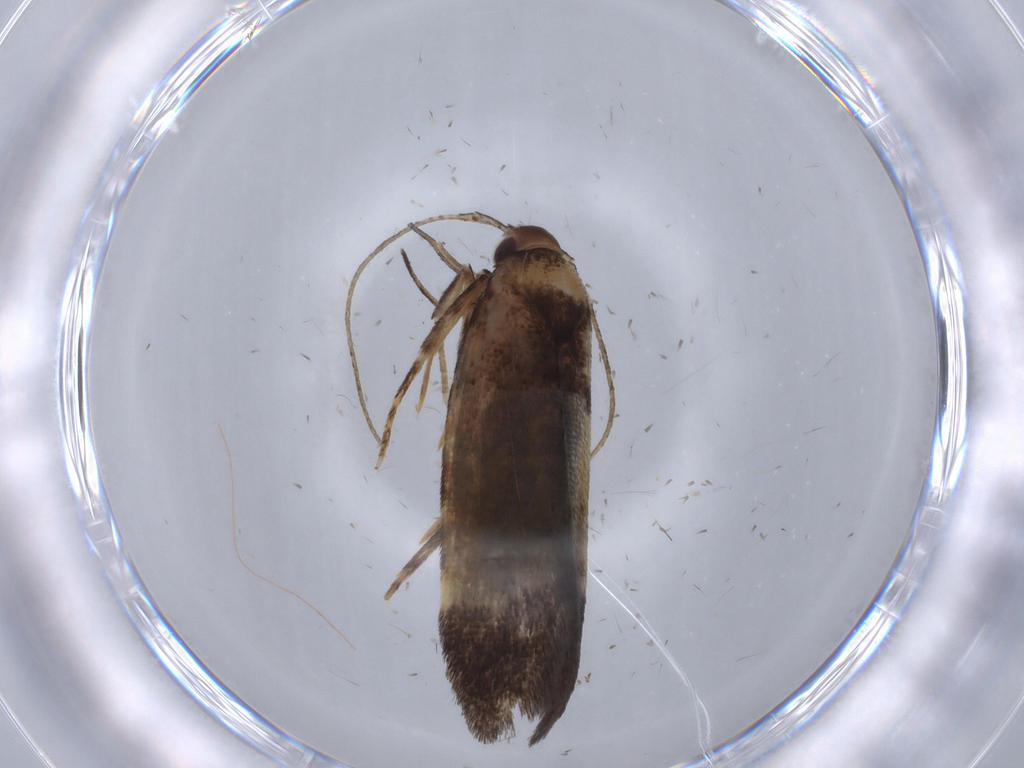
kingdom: Animalia
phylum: Arthropoda
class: Insecta
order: Lepidoptera
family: Cosmopterigidae
